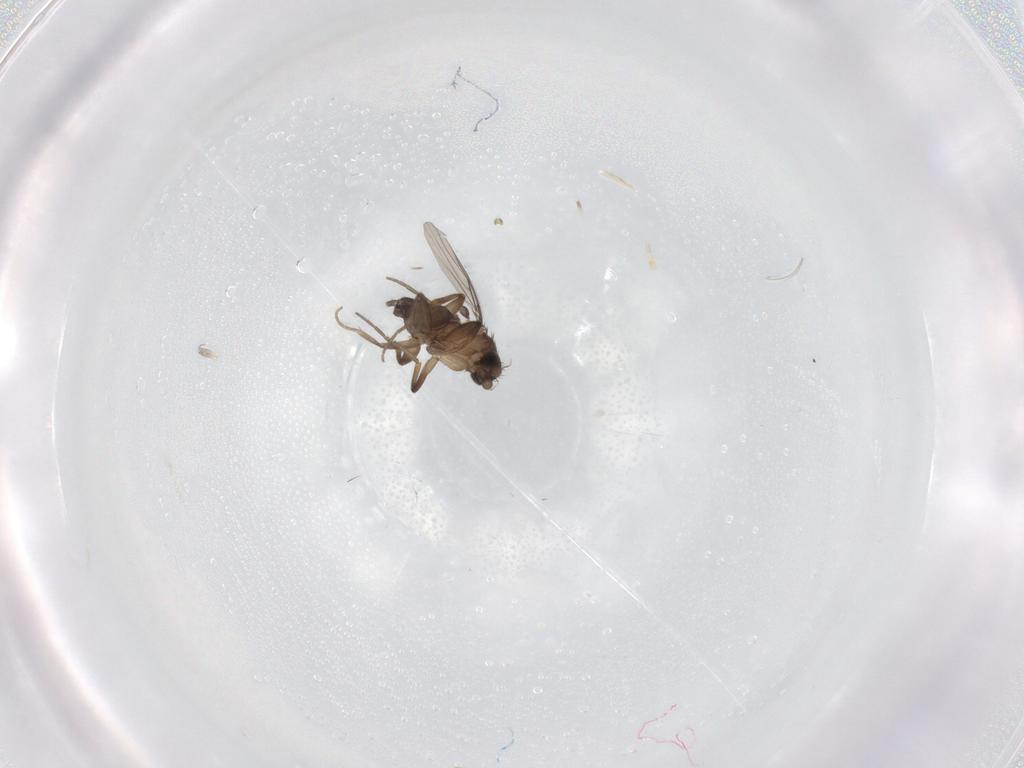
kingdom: Animalia
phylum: Arthropoda
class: Insecta
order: Diptera
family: Phoridae
